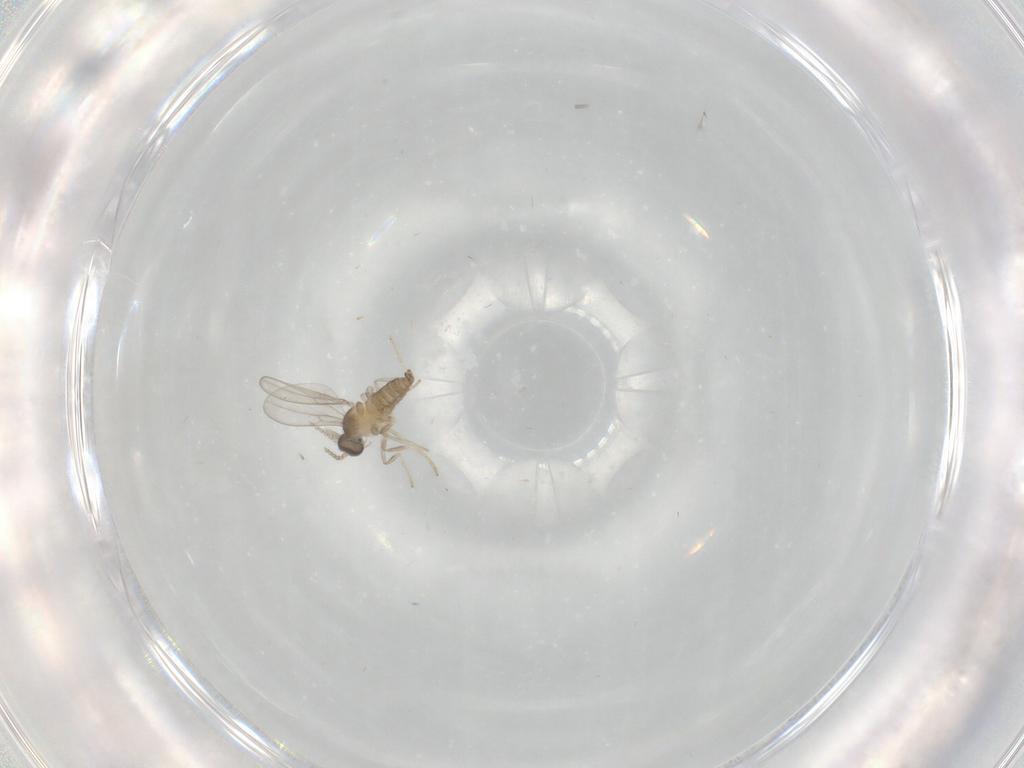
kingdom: Animalia
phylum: Arthropoda
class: Insecta
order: Diptera
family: Cecidomyiidae
